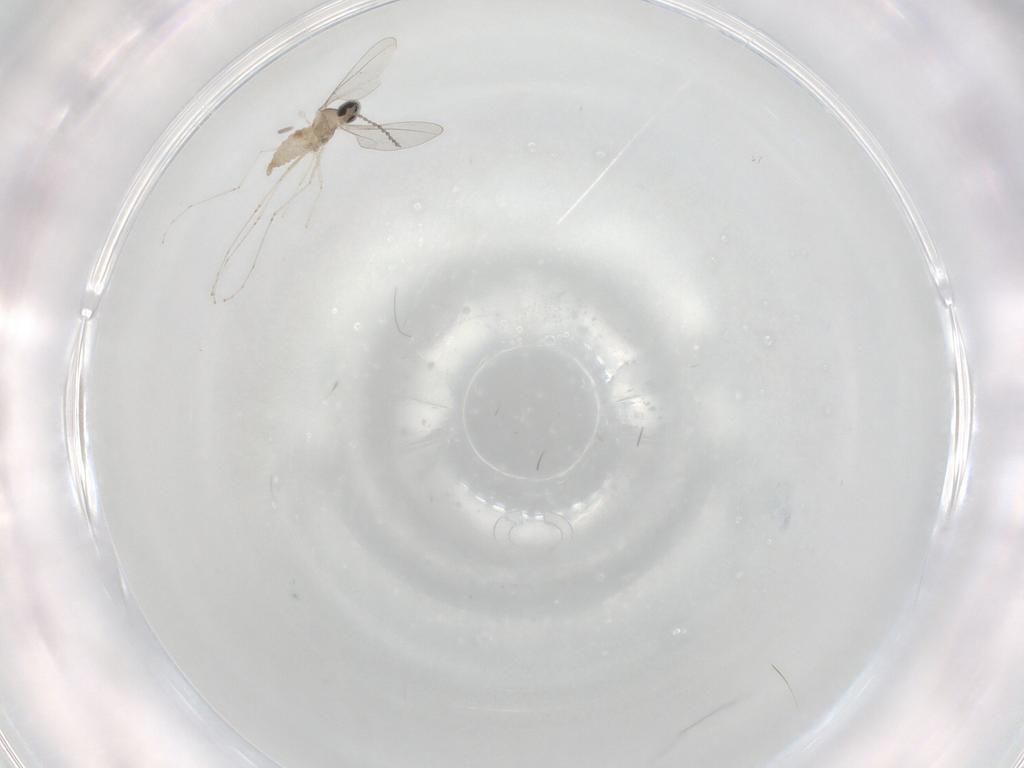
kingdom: Animalia
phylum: Arthropoda
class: Insecta
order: Diptera
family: Cecidomyiidae
